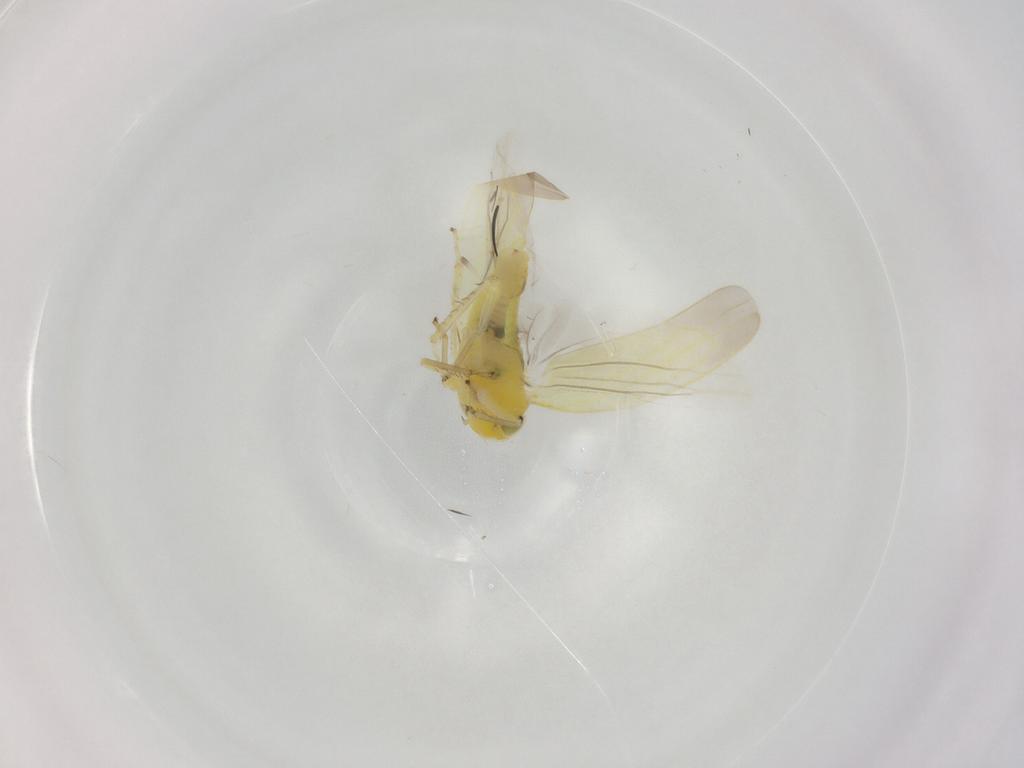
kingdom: Animalia
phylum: Arthropoda
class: Insecta
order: Hemiptera
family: Cicadellidae
